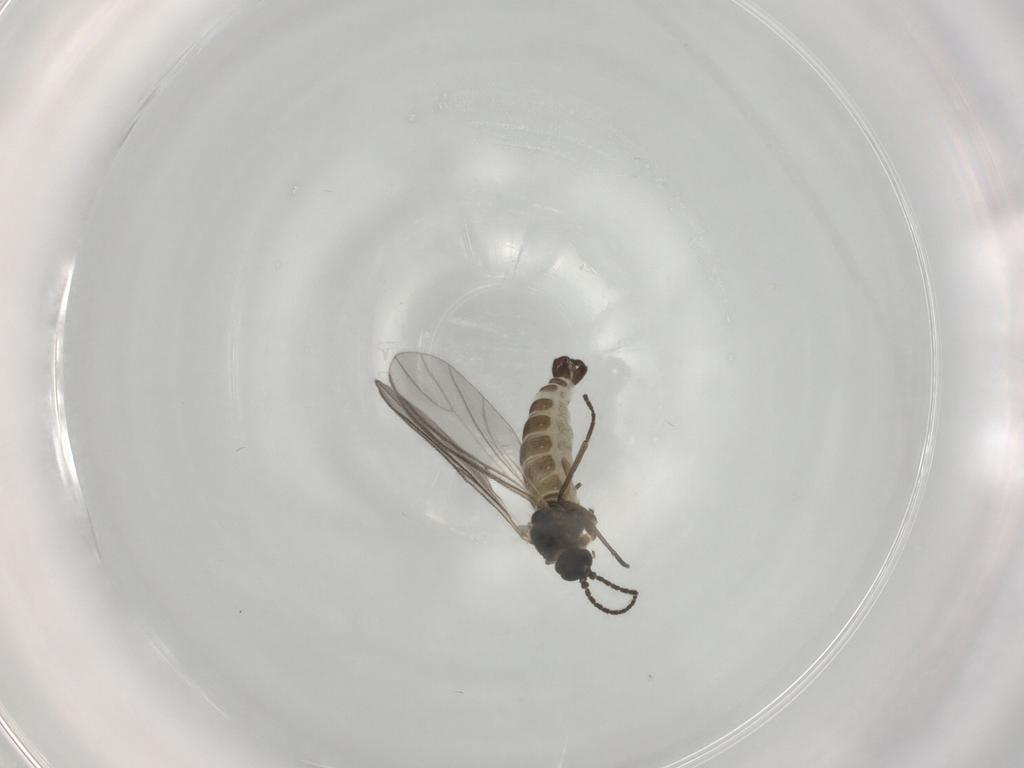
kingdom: Animalia
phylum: Arthropoda
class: Insecta
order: Diptera
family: Sciaridae
